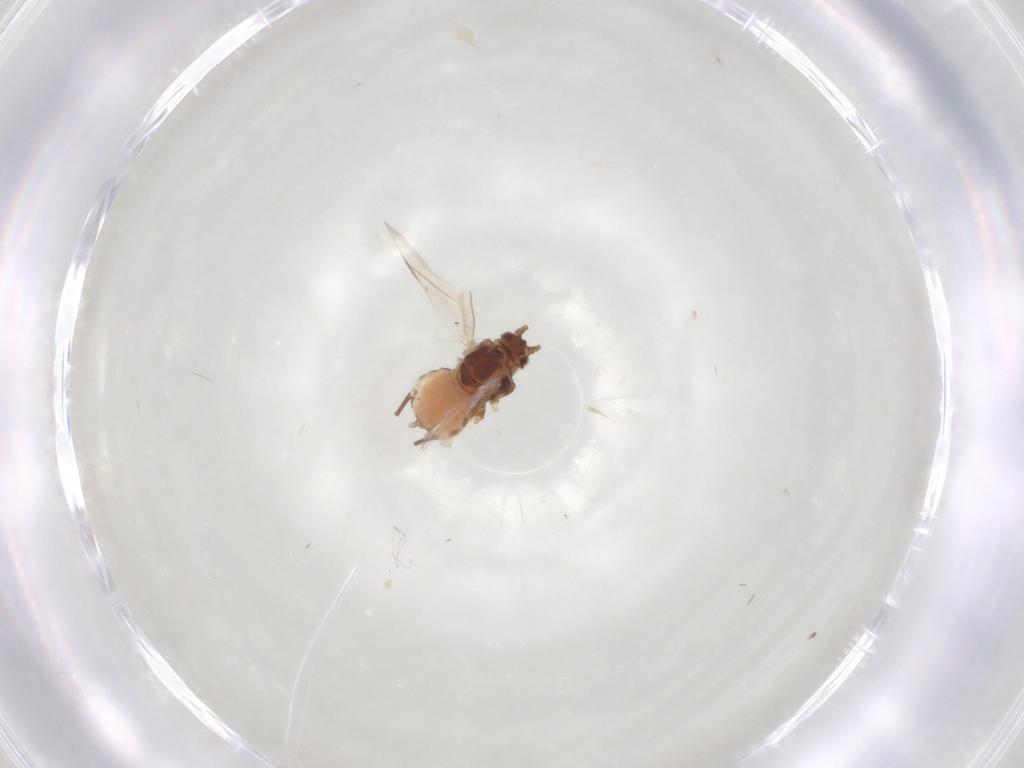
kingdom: Animalia
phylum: Arthropoda
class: Insecta
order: Hemiptera
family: Aphididae
